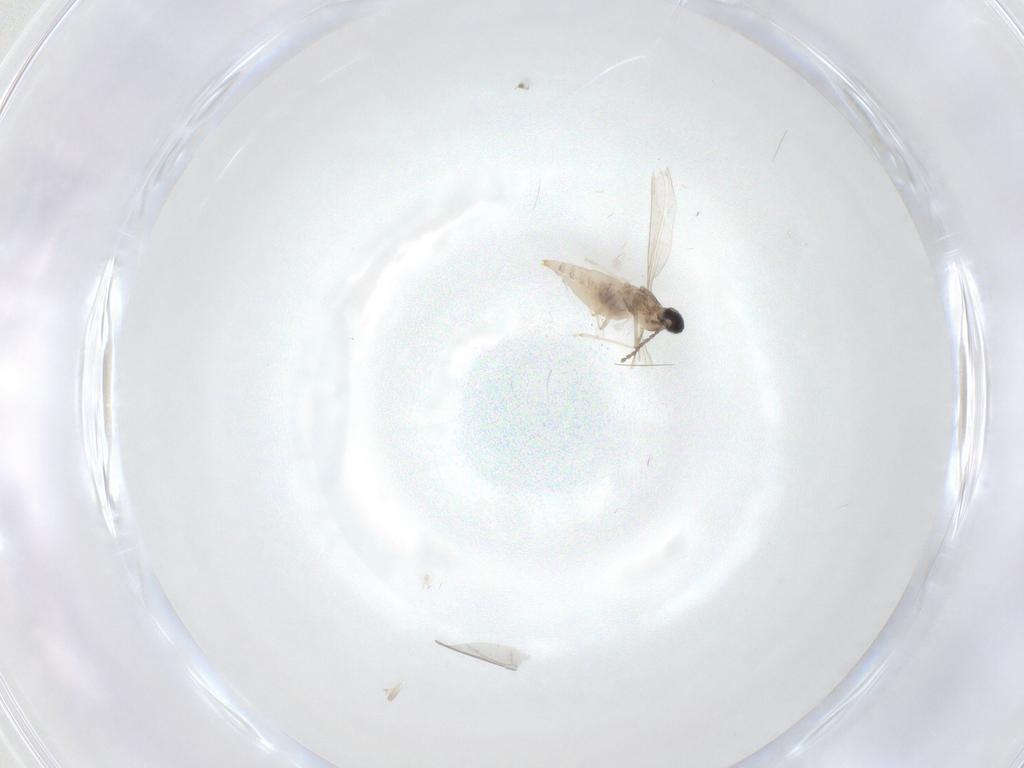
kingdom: Animalia
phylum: Arthropoda
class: Insecta
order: Diptera
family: Cecidomyiidae
